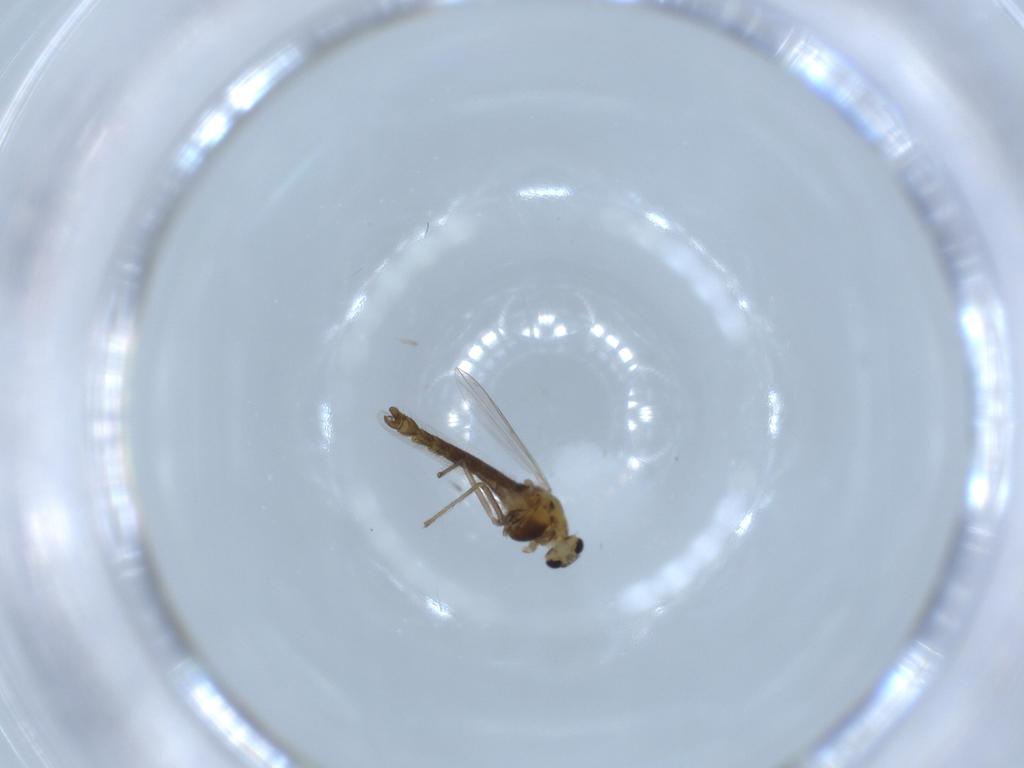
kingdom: Animalia
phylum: Arthropoda
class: Insecta
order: Diptera
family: Chironomidae
